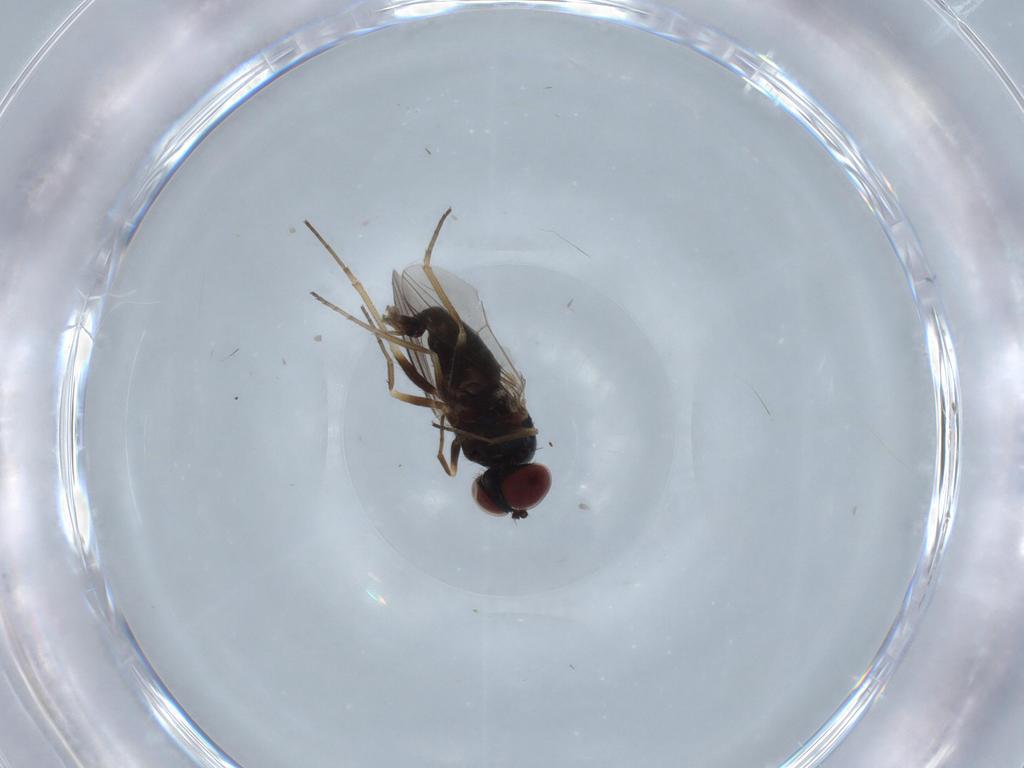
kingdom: Animalia
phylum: Arthropoda
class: Insecta
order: Diptera
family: Dolichopodidae
